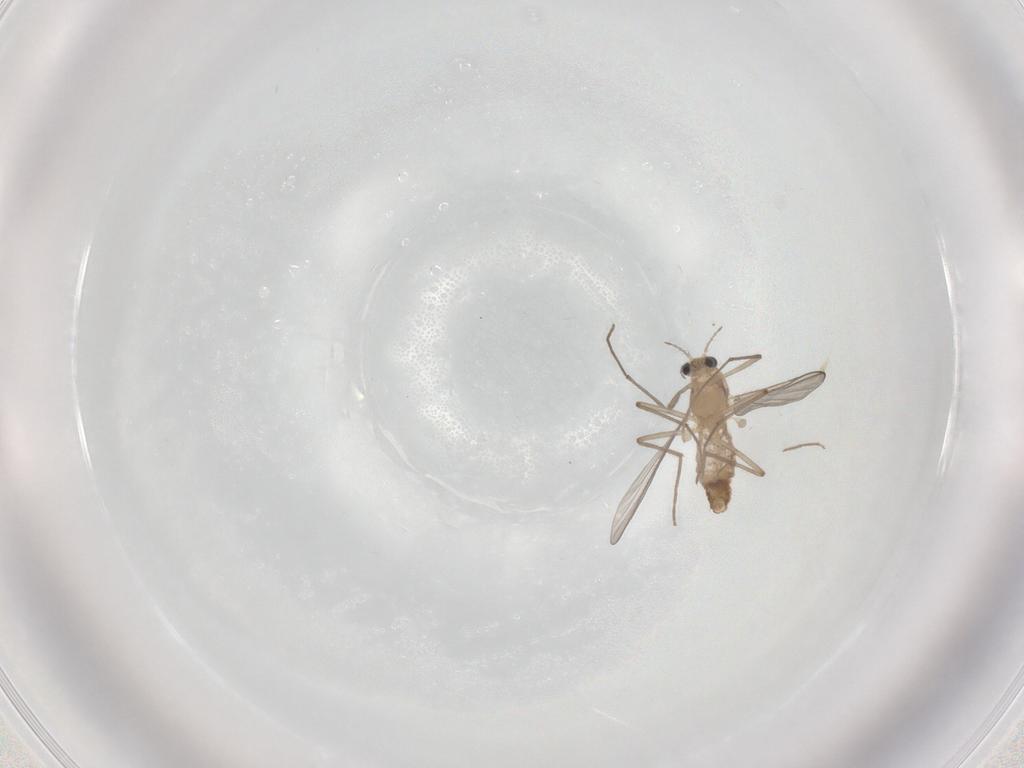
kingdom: Animalia
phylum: Arthropoda
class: Insecta
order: Diptera
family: Chironomidae
